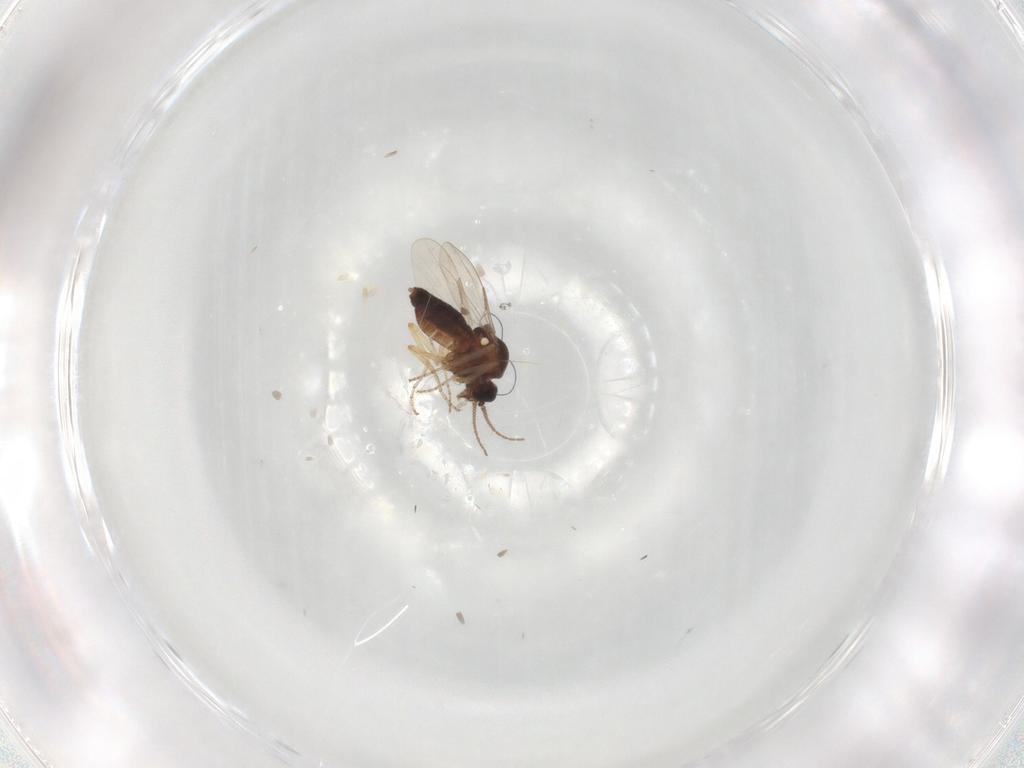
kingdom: Animalia
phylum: Arthropoda
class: Insecta
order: Diptera
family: Ceratopogonidae
